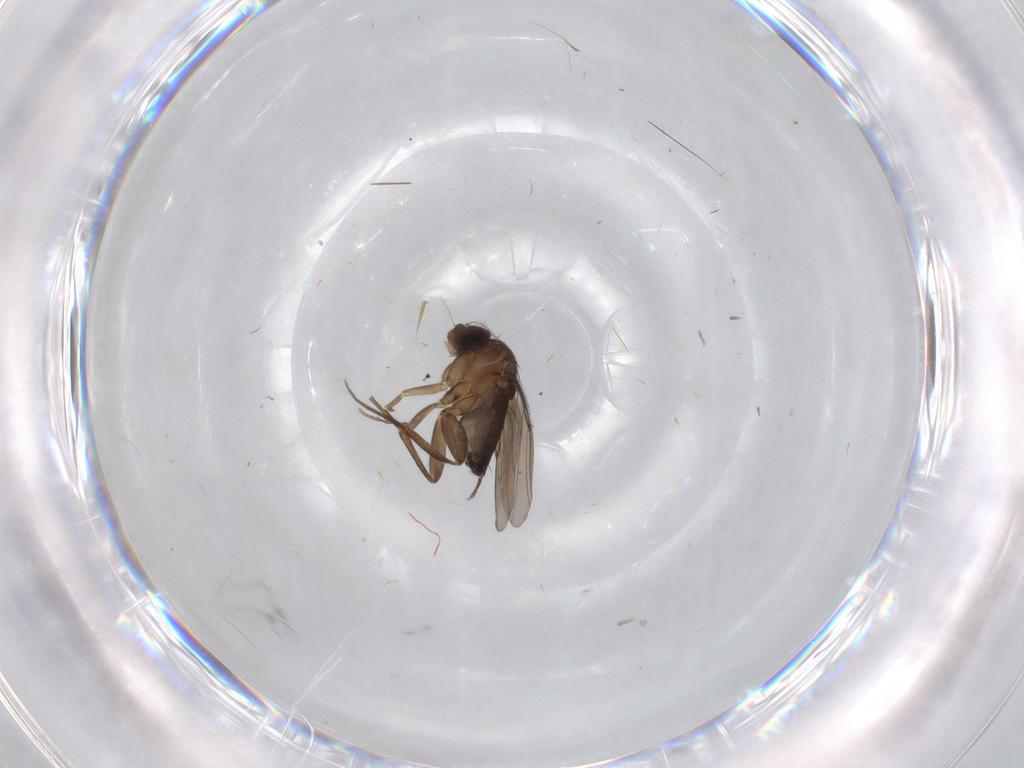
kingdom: Animalia
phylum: Arthropoda
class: Insecta
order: Diptera
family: Phoridae
